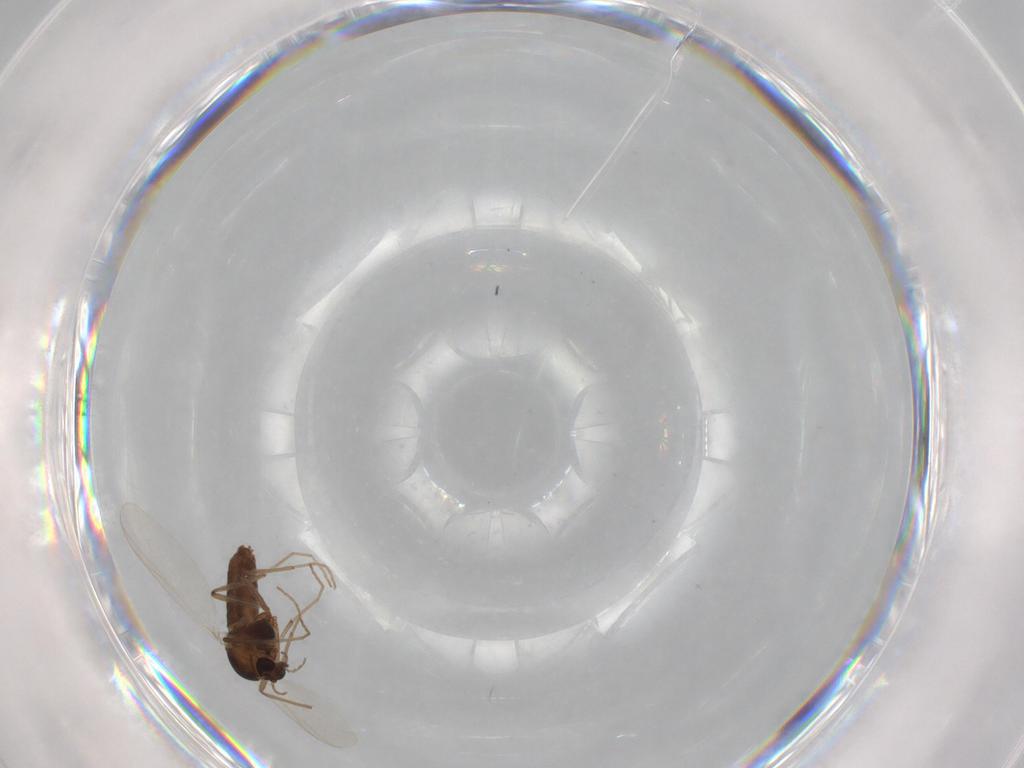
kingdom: Animalia
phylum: Arthropoda
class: Insecta
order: Diptera
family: Chironomidae
